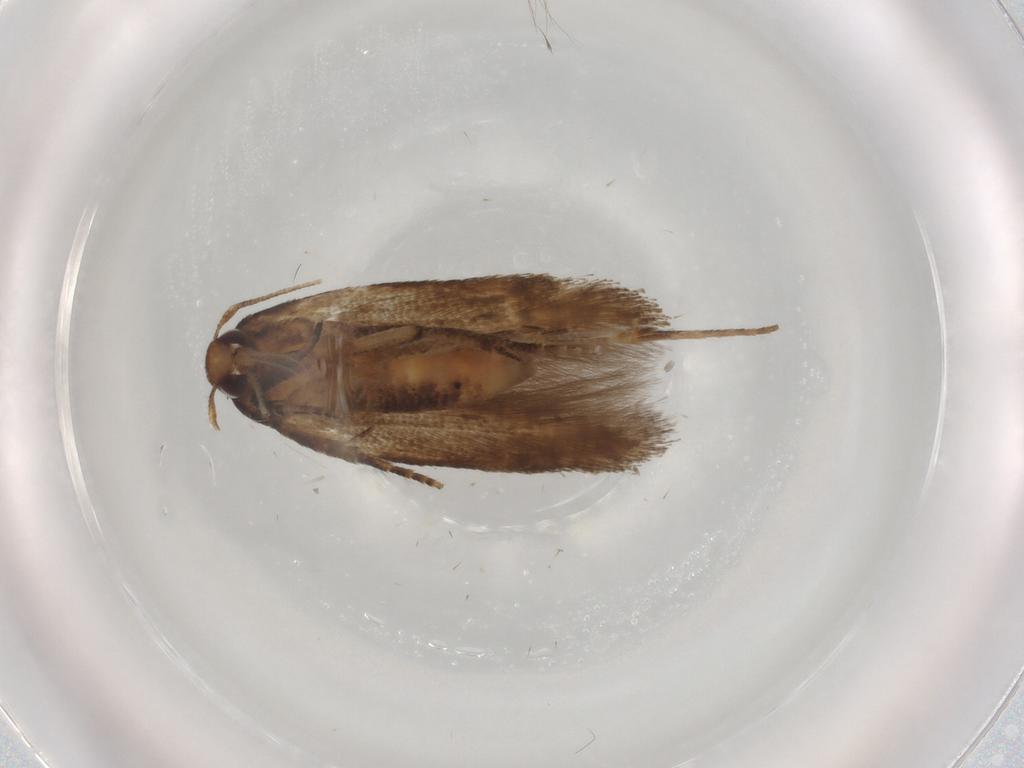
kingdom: Animalia
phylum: Arthropoda
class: Insecta
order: Lepidoptera
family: Cosmopterigidae
